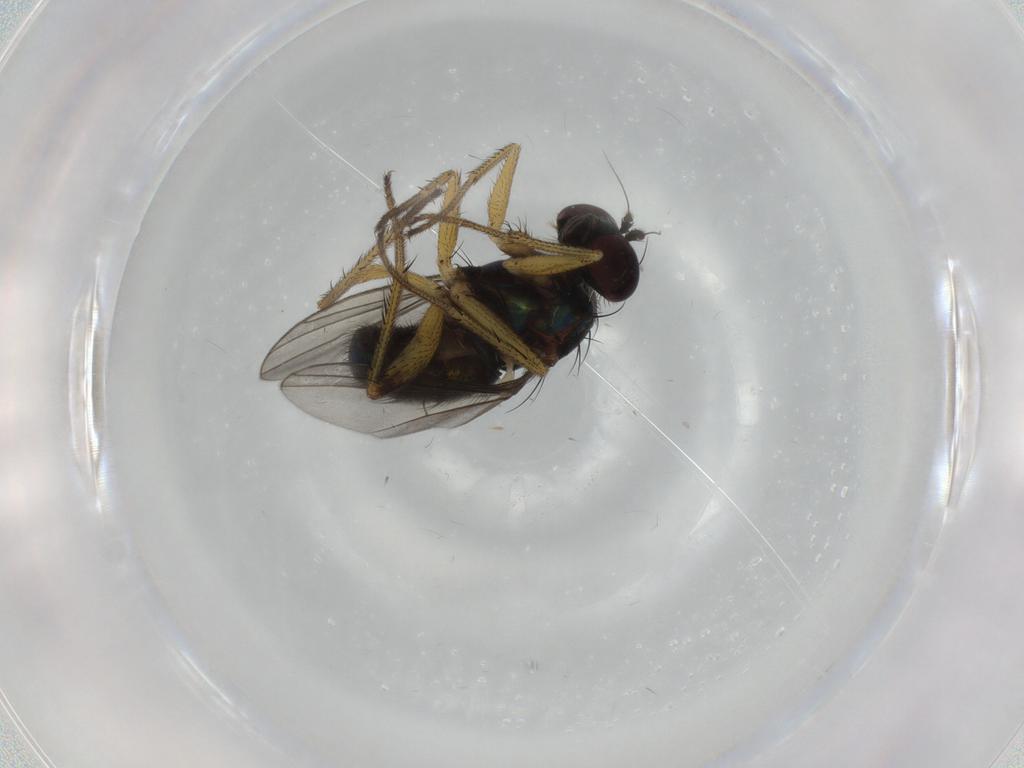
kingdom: Animalia
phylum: Arthropoda
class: Insecta
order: Diptera
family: Dolichopodidae
